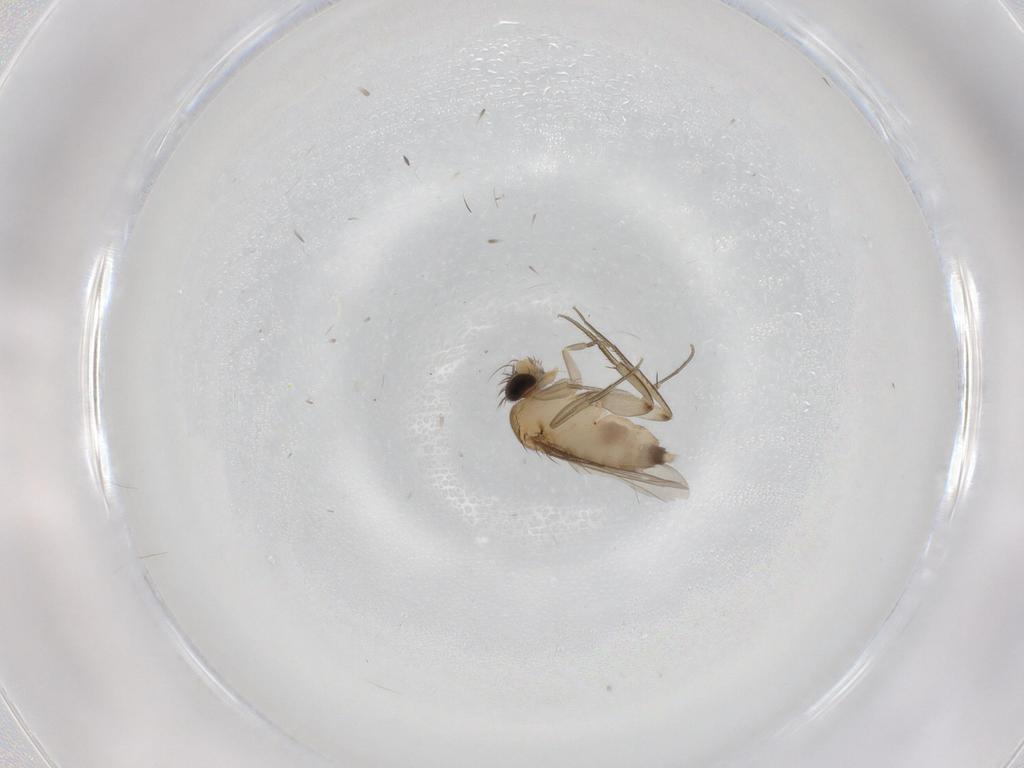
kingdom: Animalia
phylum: Arthropoda
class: Insecta
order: Diptera
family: Phoridae
